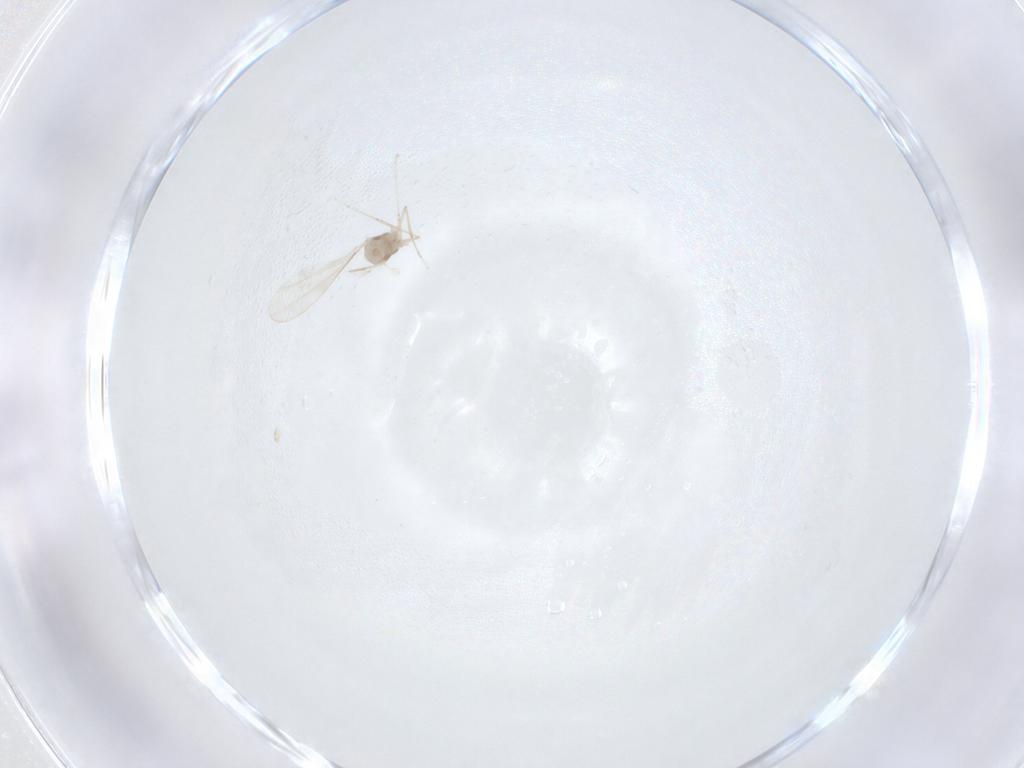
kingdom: Animalia
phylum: Arthropoda
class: Insecta
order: Diptera
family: Cecidomyiidae
